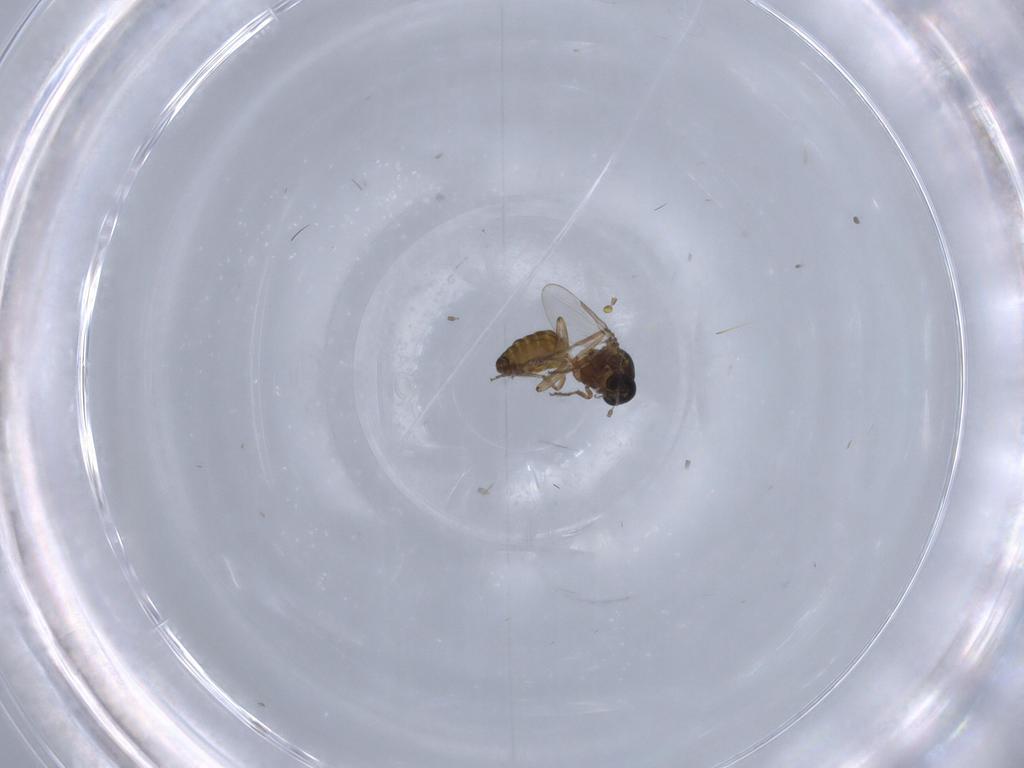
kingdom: Animalia
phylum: Arthropoda
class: Insecta
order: Diptera
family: Ceratopogonidae
